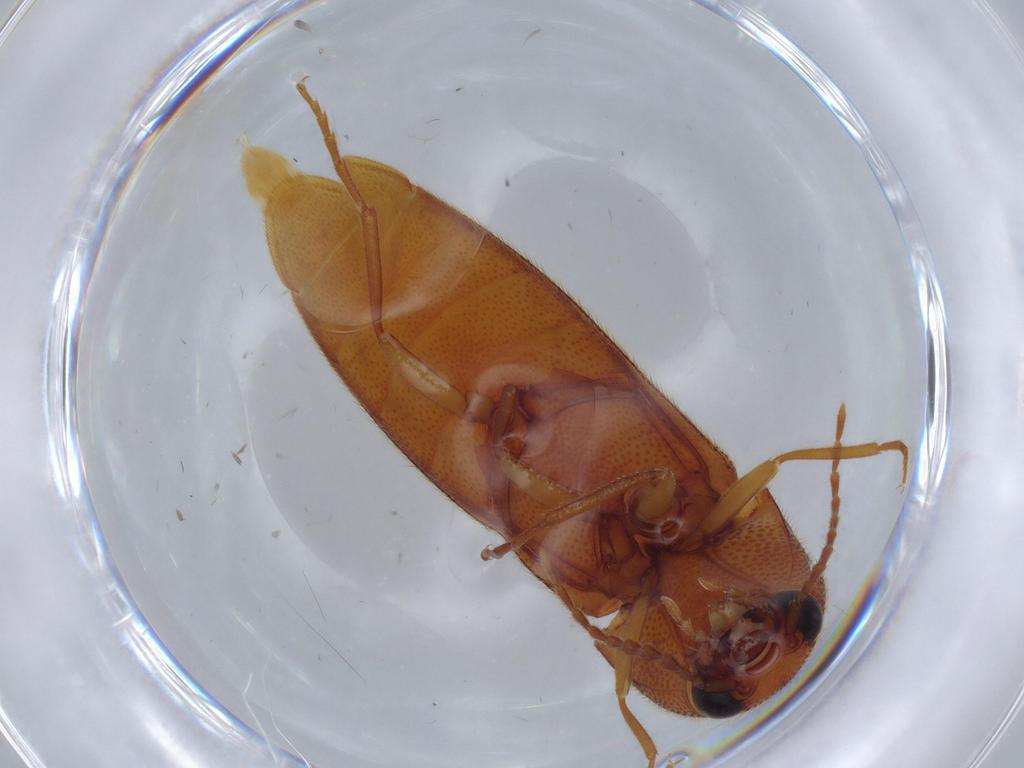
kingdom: Animalia
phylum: Arthropoda
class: Insecta
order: Coleoptera
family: Elateridae
